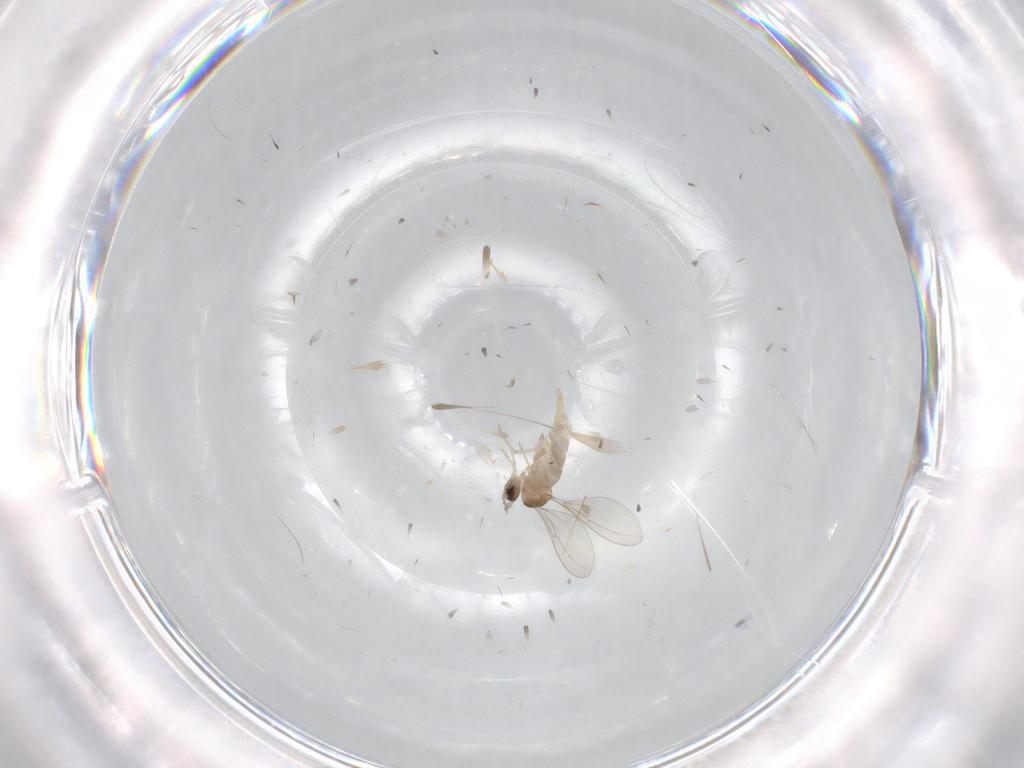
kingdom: Animalia
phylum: Arthropoda
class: Insecta
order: Diptera
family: Cecidomyiidae
